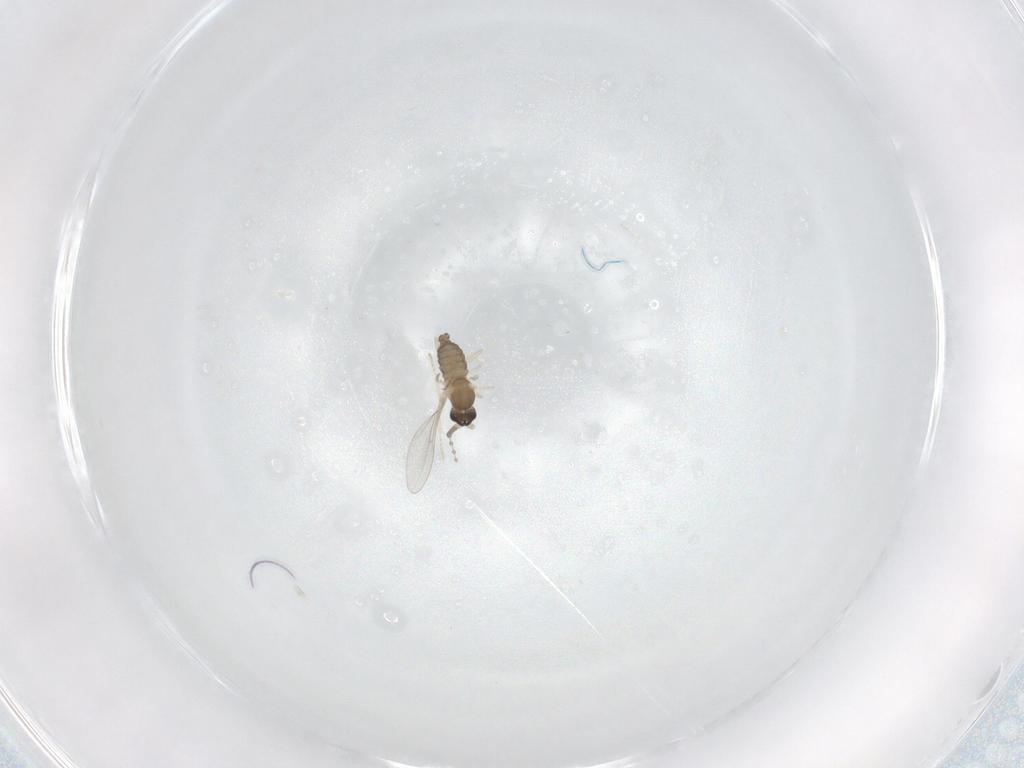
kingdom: Animalia
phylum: Arthropoda
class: Insecta
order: Diptera
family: Cecidomyiidae
